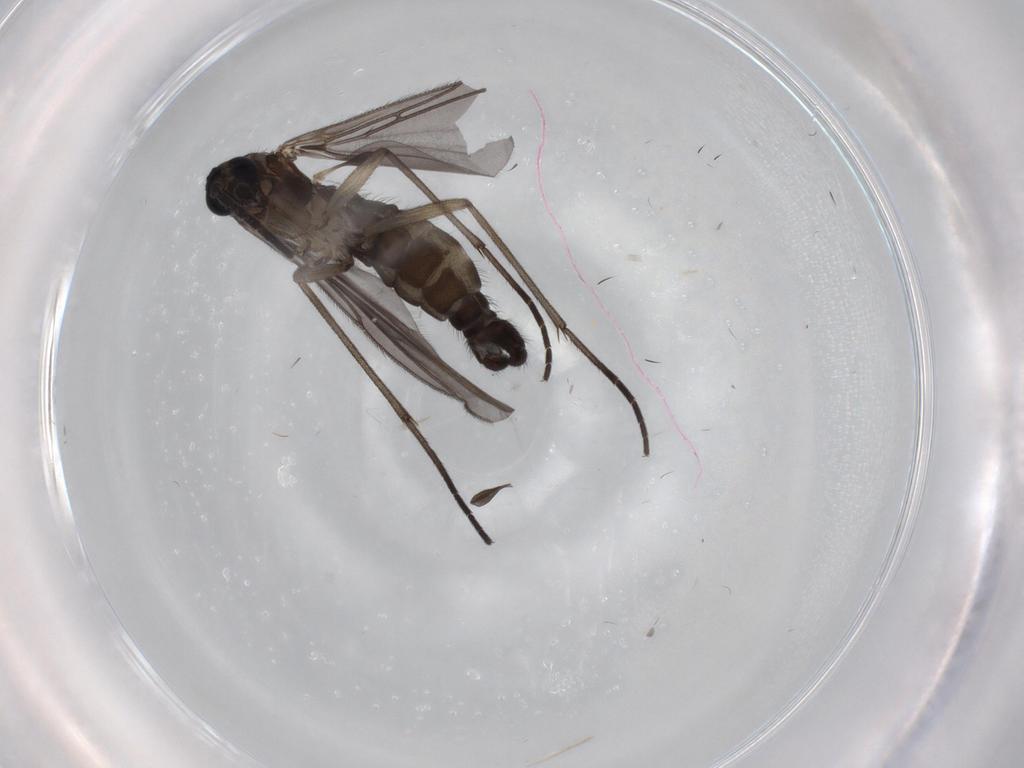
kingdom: Animalia
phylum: Arthropoda
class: Insecta
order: Diptera
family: Sciaridae
